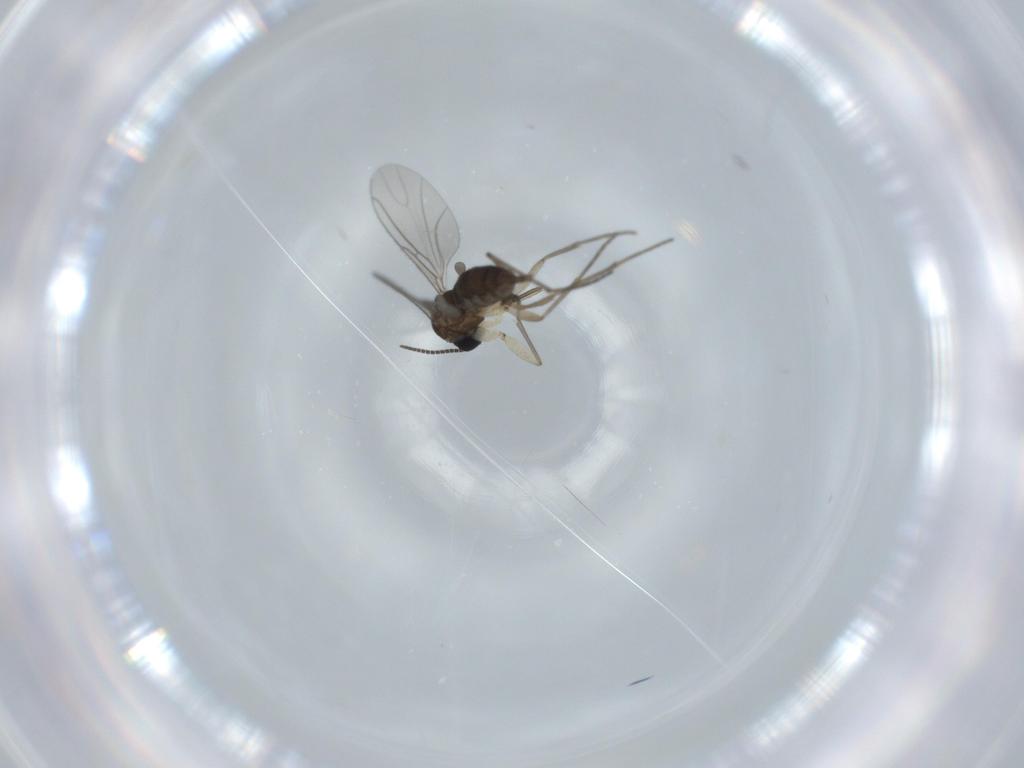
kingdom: Animalia
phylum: Arthropoda
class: Insecta
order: Diptera
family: Sciaridae
